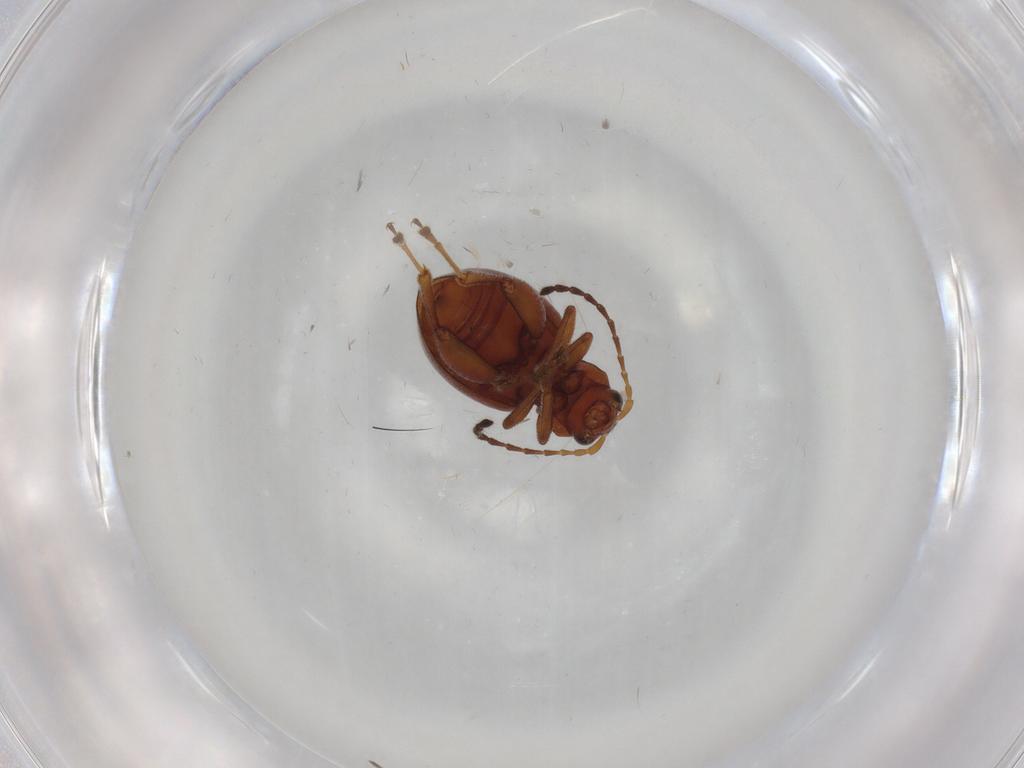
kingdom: Animalia
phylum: Arthropoda
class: Insecta
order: Coleoptera
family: Chrysomelidae
